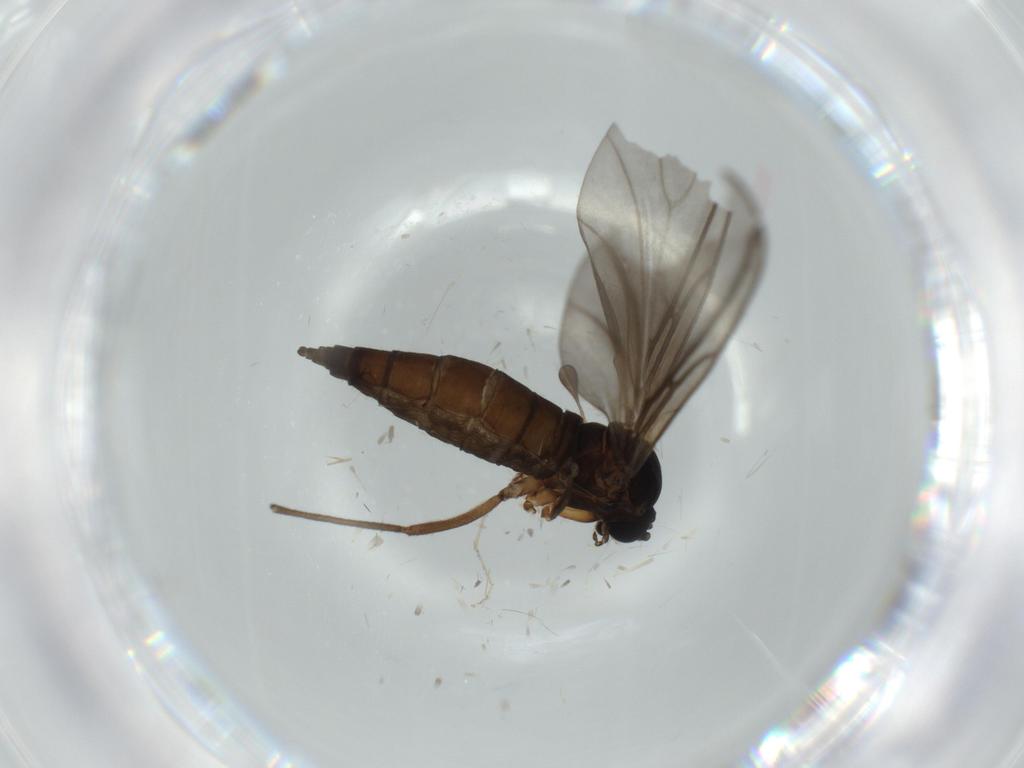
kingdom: Animalia
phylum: Arthropoda
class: Insecta
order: Diptera
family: Sciaridae
